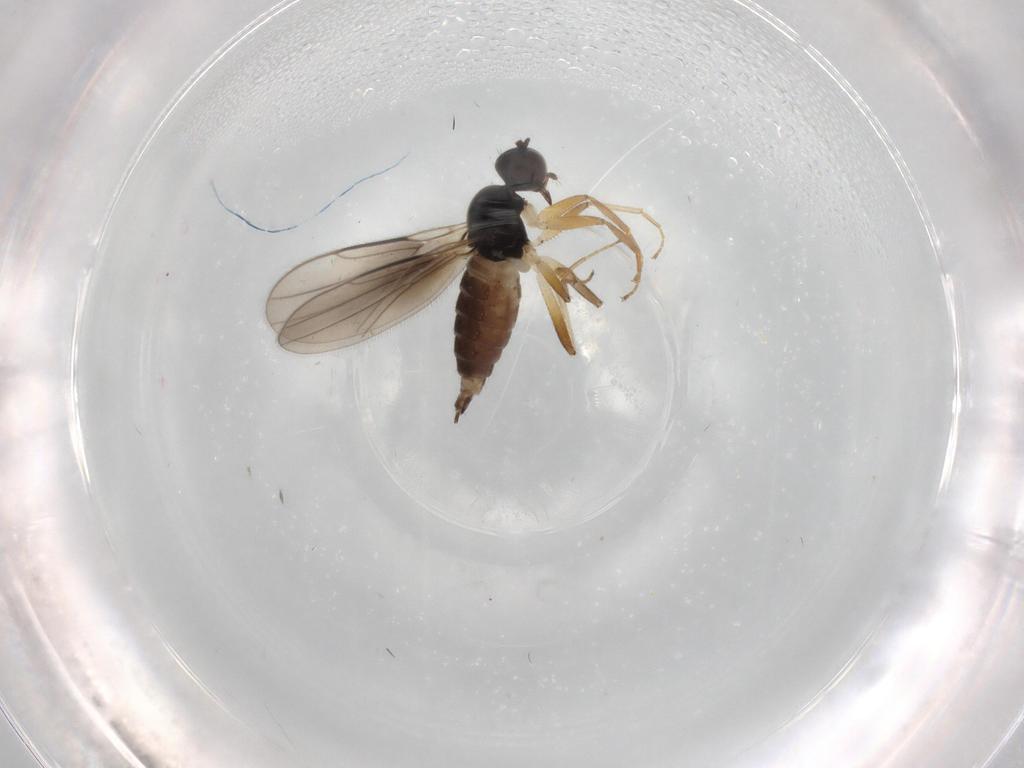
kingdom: Animalia
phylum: Arthropoda
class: Insecta
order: Diptera
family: Hybotidae
